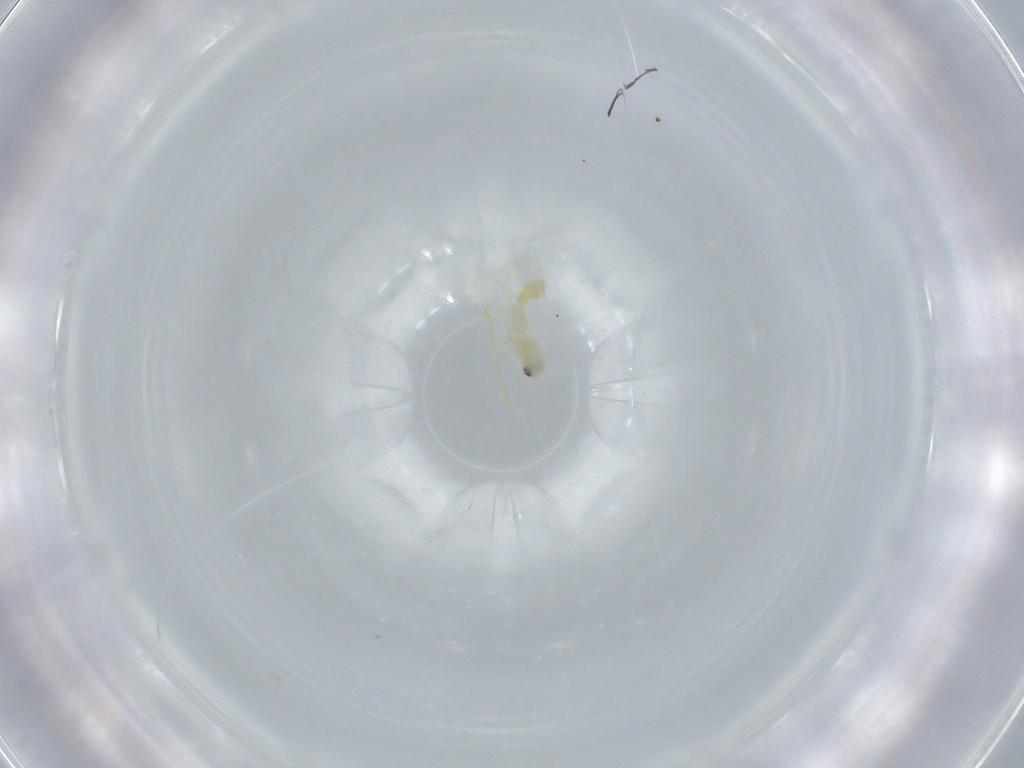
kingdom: Animalia
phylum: Arthropoda
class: Insecta
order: Hemiptera
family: Aleyrodidae
